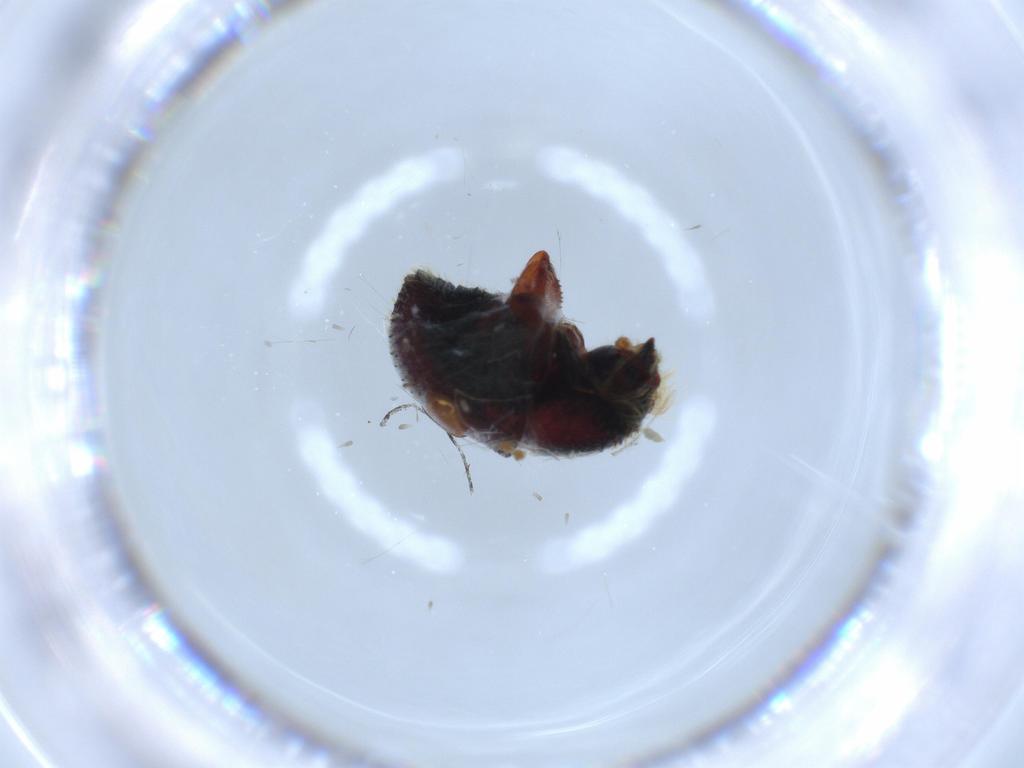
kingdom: Animalia
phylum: Arthropoda
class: Insecta
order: Coleoptera
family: Curculionidae
